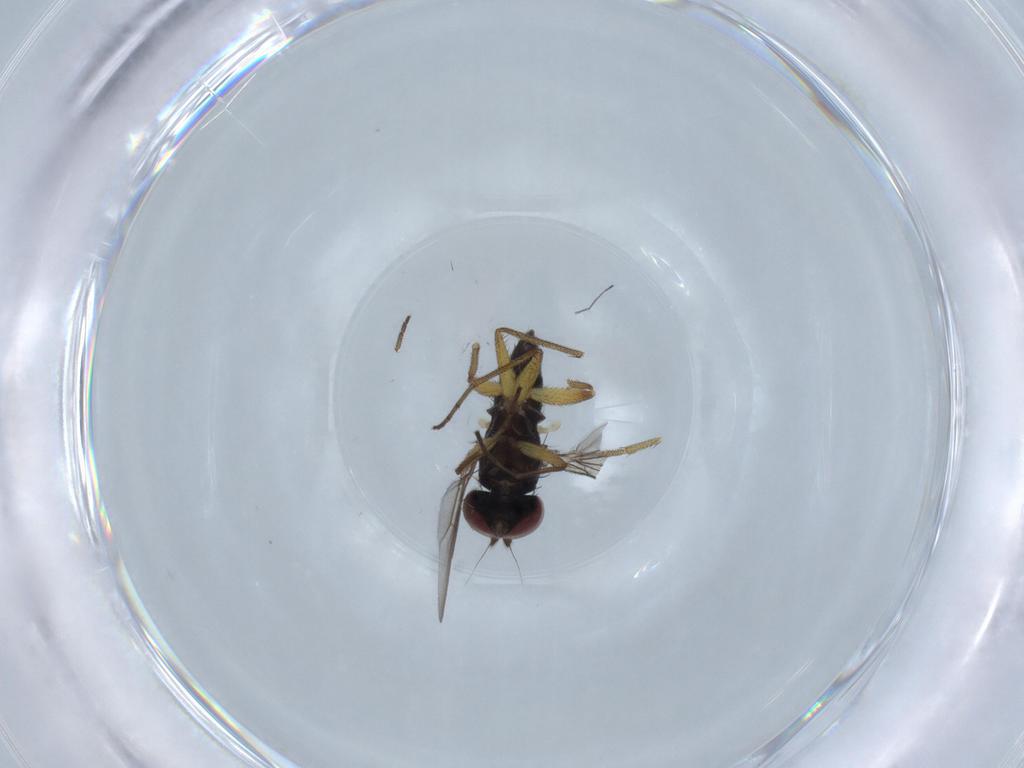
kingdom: Animalia
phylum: Arthropoda
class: Insecta
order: Diptera
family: Dolichopodidae
